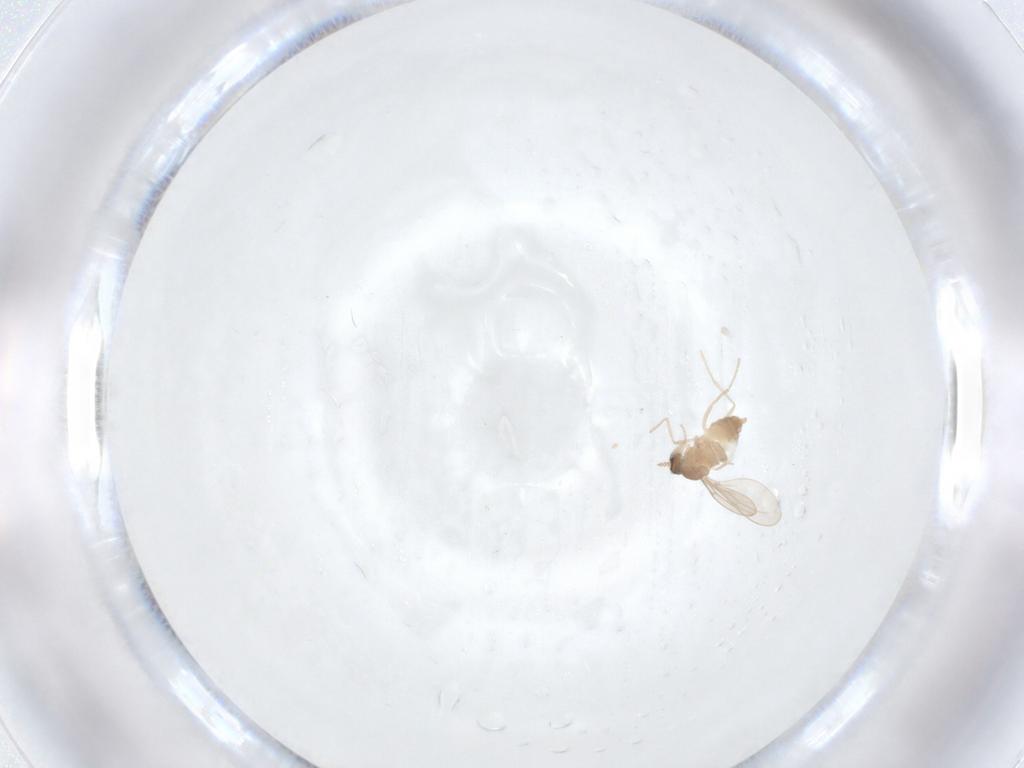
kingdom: Animalia
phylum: Arthropoda
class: Insecta
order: Diptera
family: Cecidomyiidae
